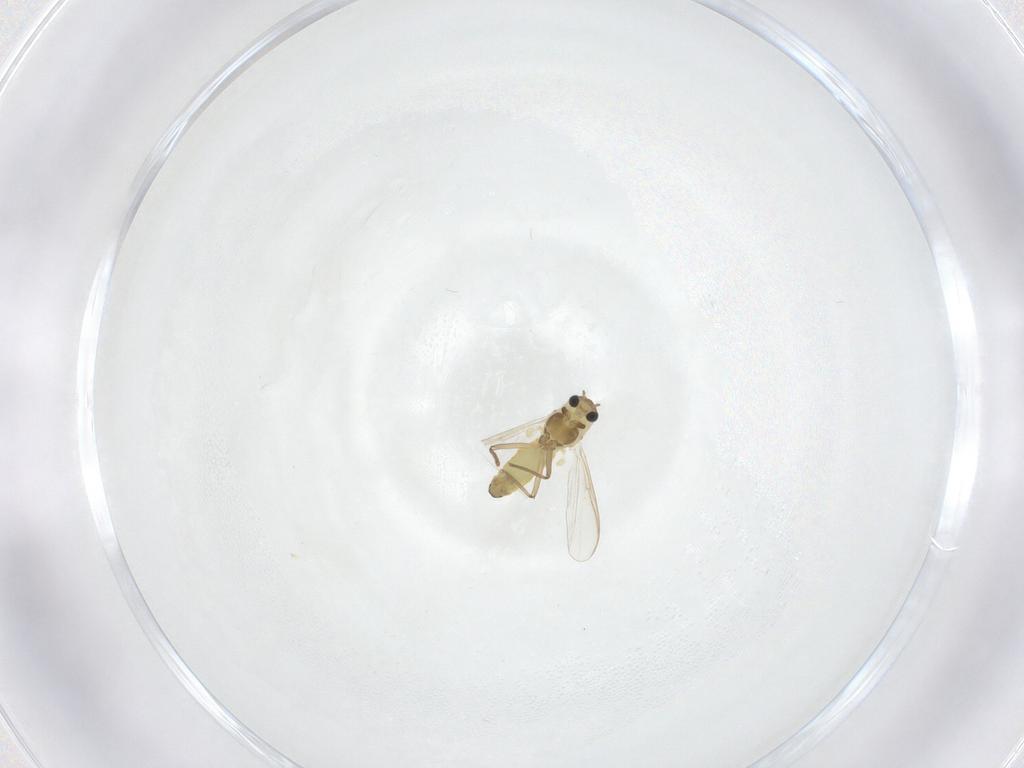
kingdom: Animalia
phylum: Arthropoda
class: Insecta
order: Diptera
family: Chironomidae
